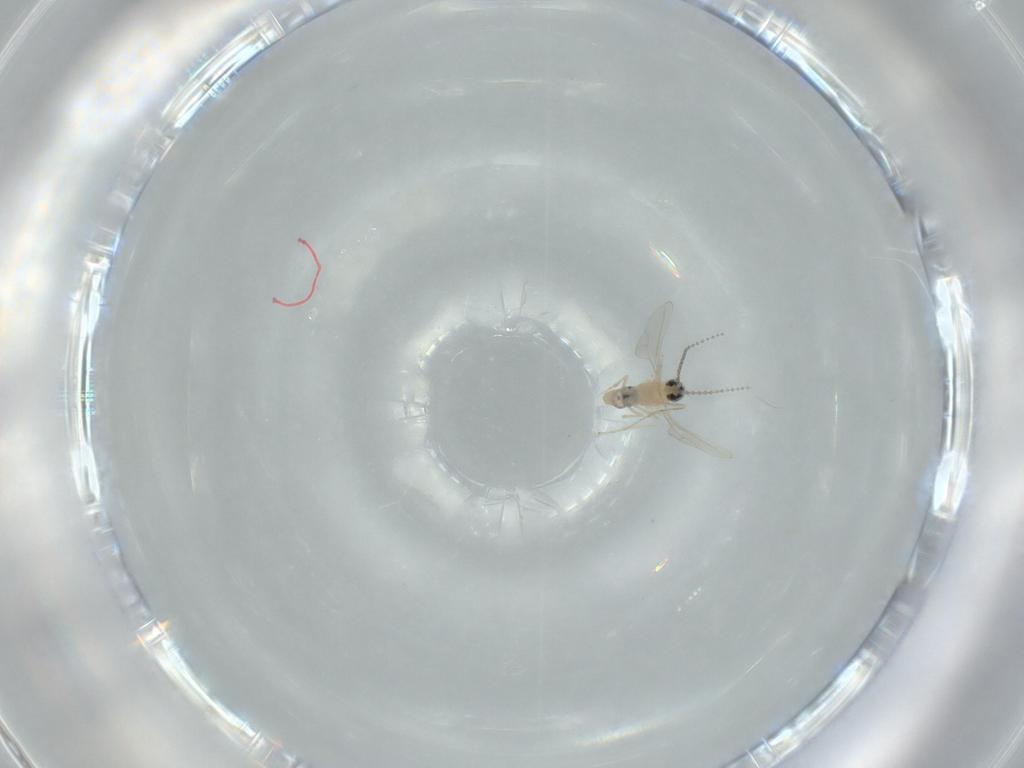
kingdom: Animalia
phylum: Arthropoda
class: Insecta
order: Diptera
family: Cecidomyiidae
